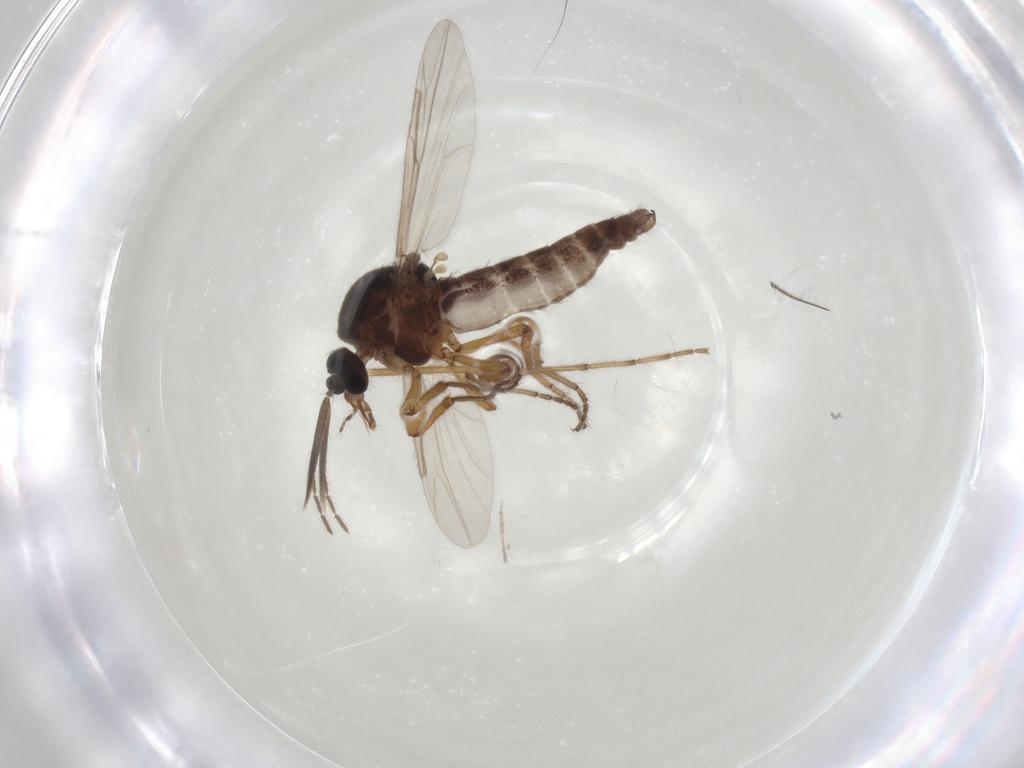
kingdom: Animalia
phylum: Arthropoda
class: Insecta
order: Diptera
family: Ceratopogonidae
